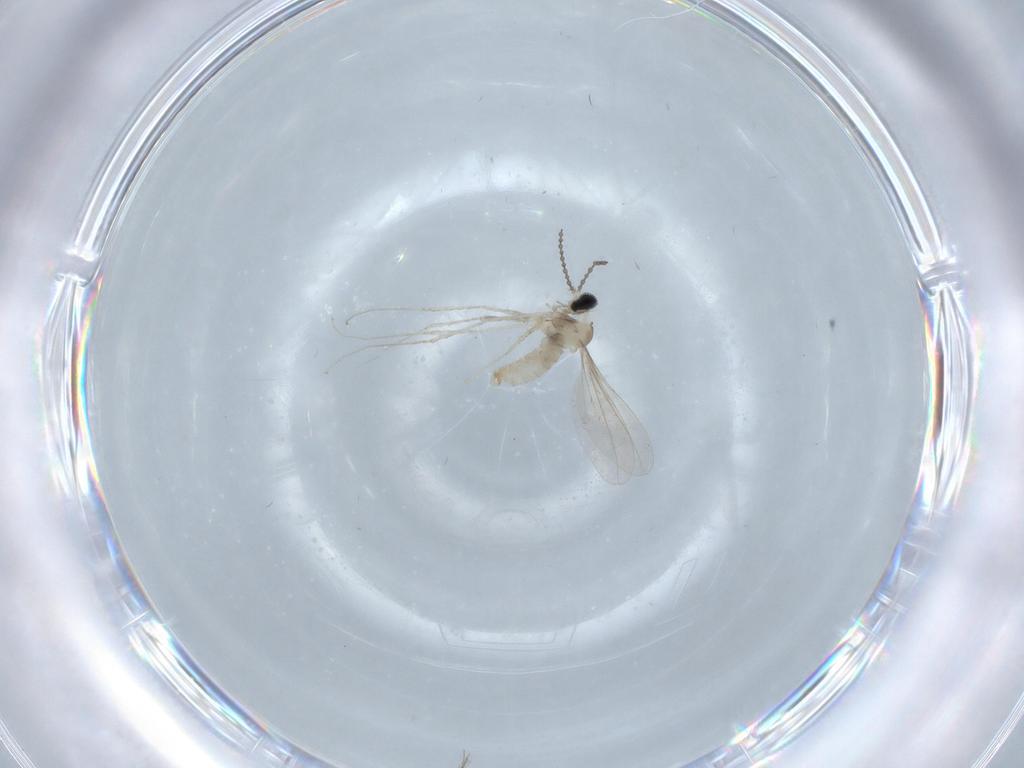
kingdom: Animalia
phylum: Arthropoda
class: Insecta
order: Diptera
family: Cecidomyiidae
